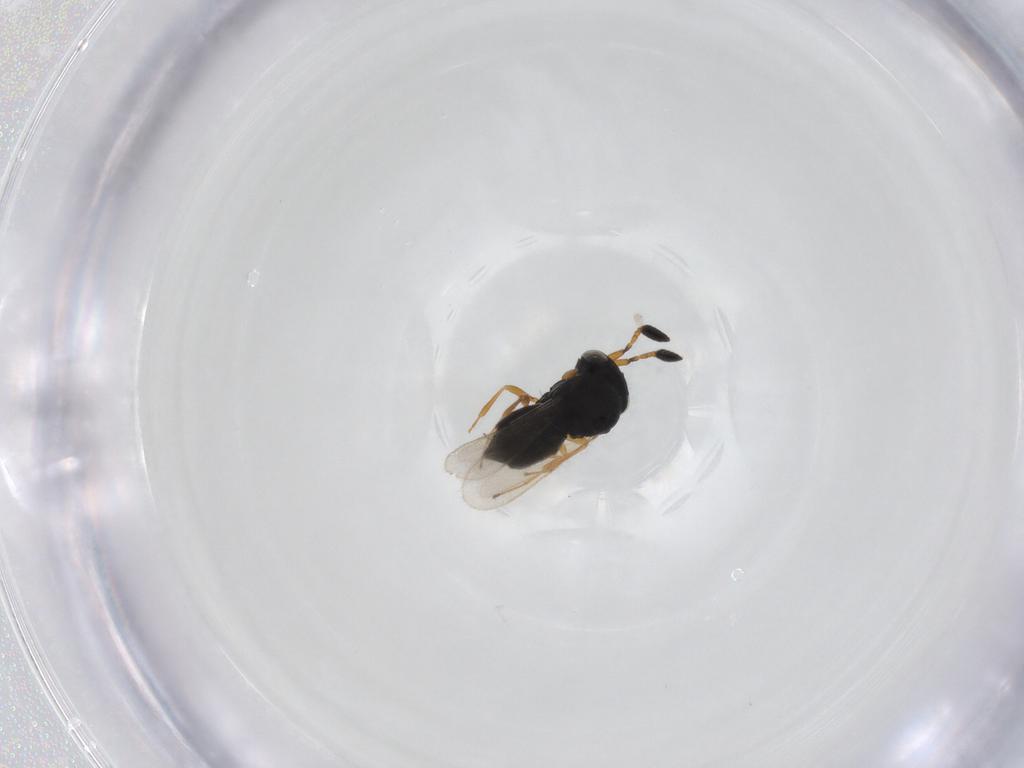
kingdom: Animalia
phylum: Arthropoda
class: Insecta
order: Hymenoptera
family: Scelionidae
